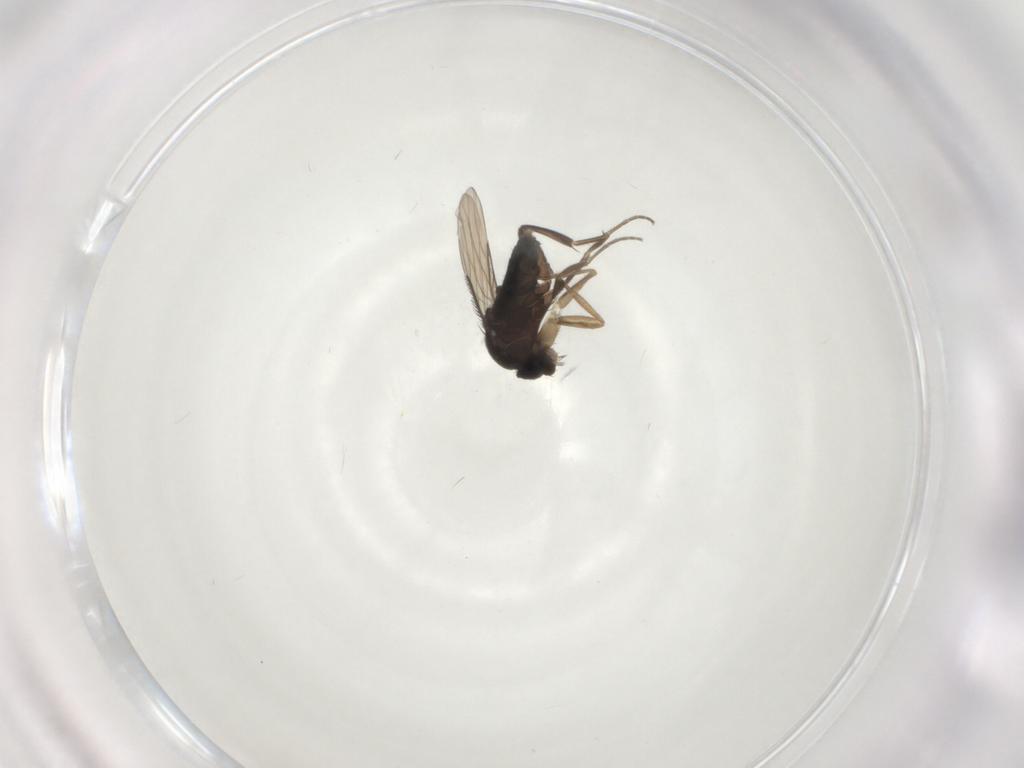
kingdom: Animalia
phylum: Arthropoda
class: Insecta
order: Diptera
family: Phoridae
